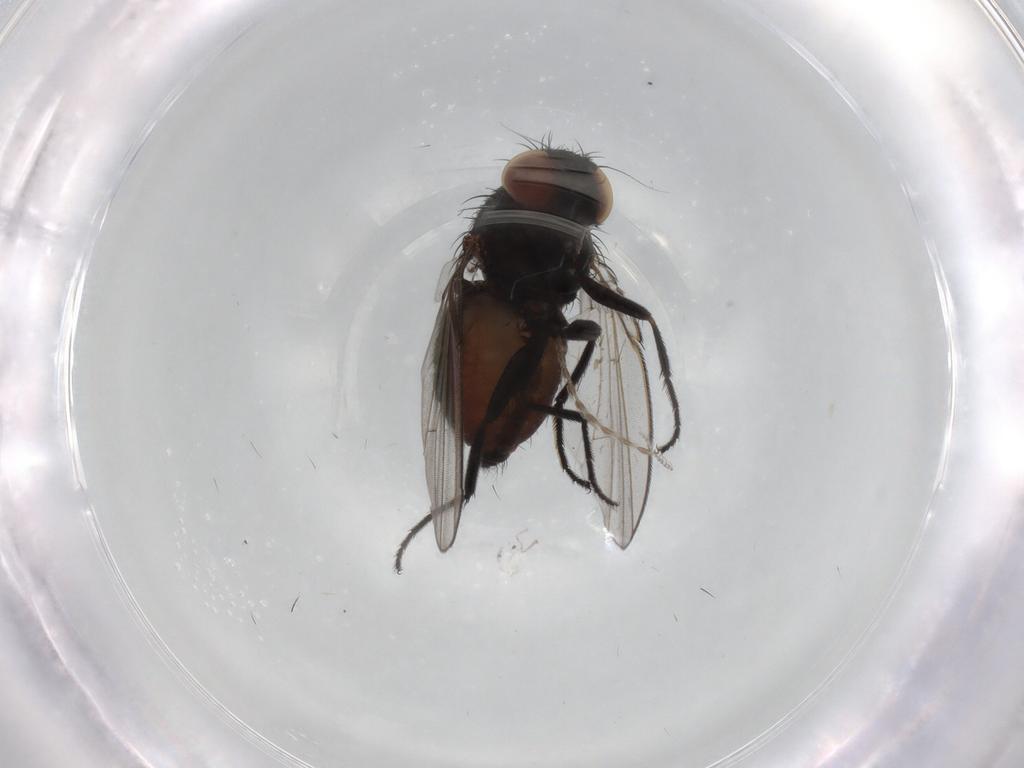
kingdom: Animalia
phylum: Arthropoda
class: Insecta
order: Diptera
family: Milichiidae
